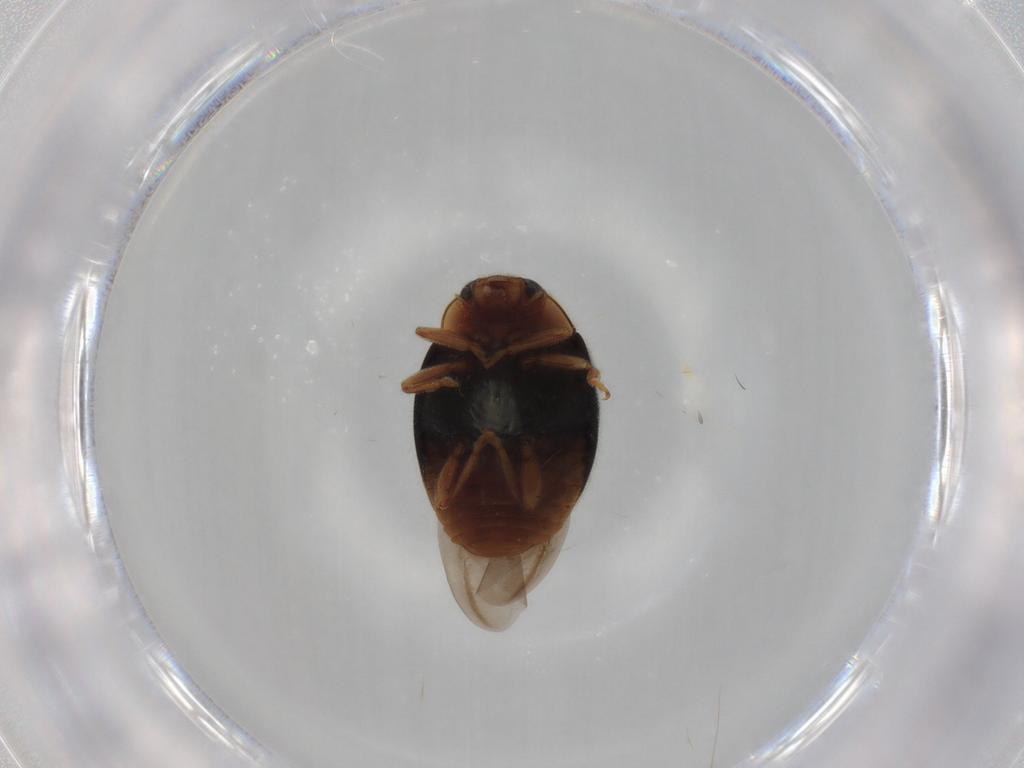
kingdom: Animalia
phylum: Arthropoda
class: Insecta
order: Coleoptera
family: Coccinellidae
